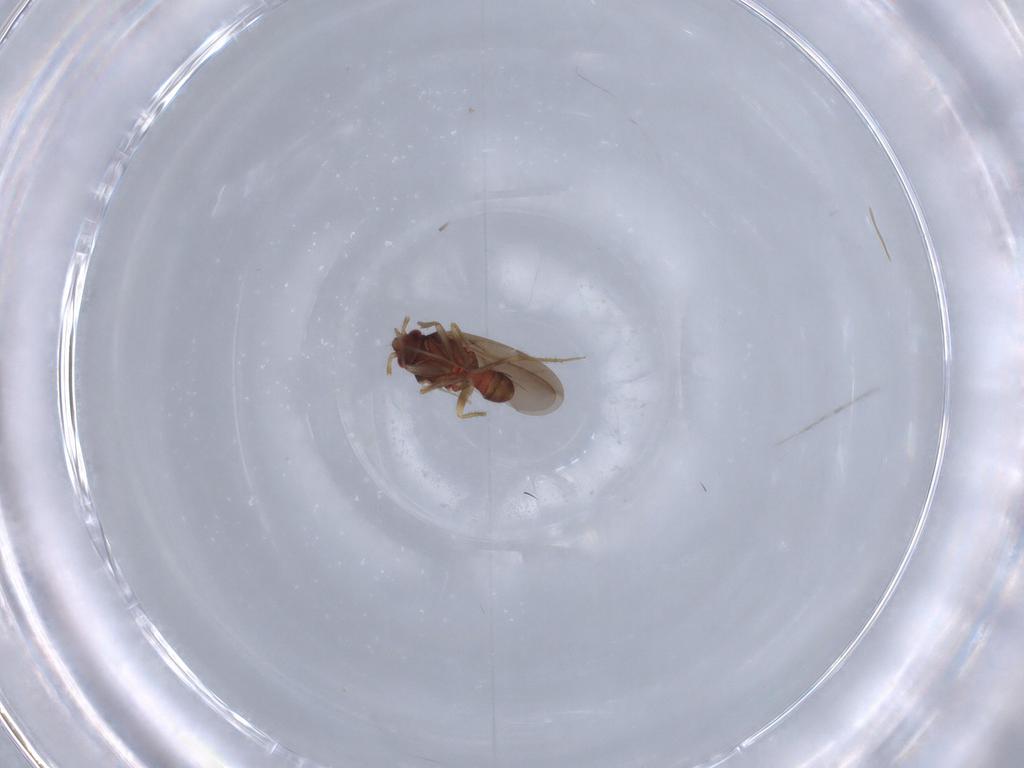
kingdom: Animalia
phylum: Arthropoda
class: Insecta
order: Hemiptera
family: Ceratocombidae
